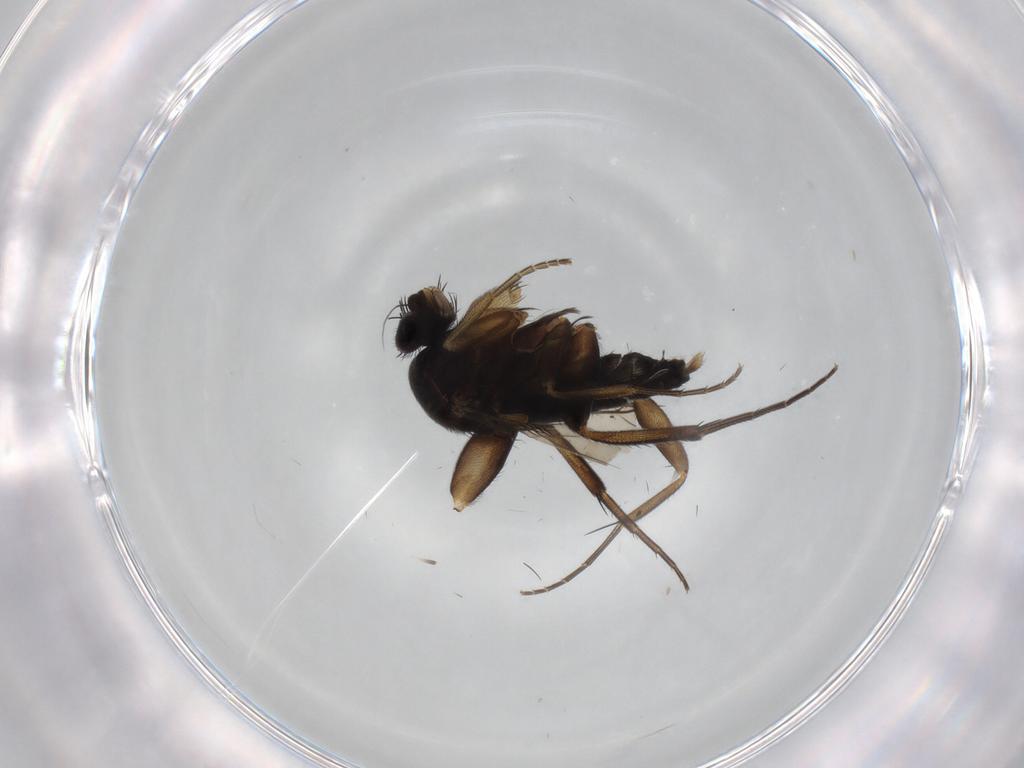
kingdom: Animalia
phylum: Arthropoda
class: Insecta
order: Diptera
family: Phoridae
